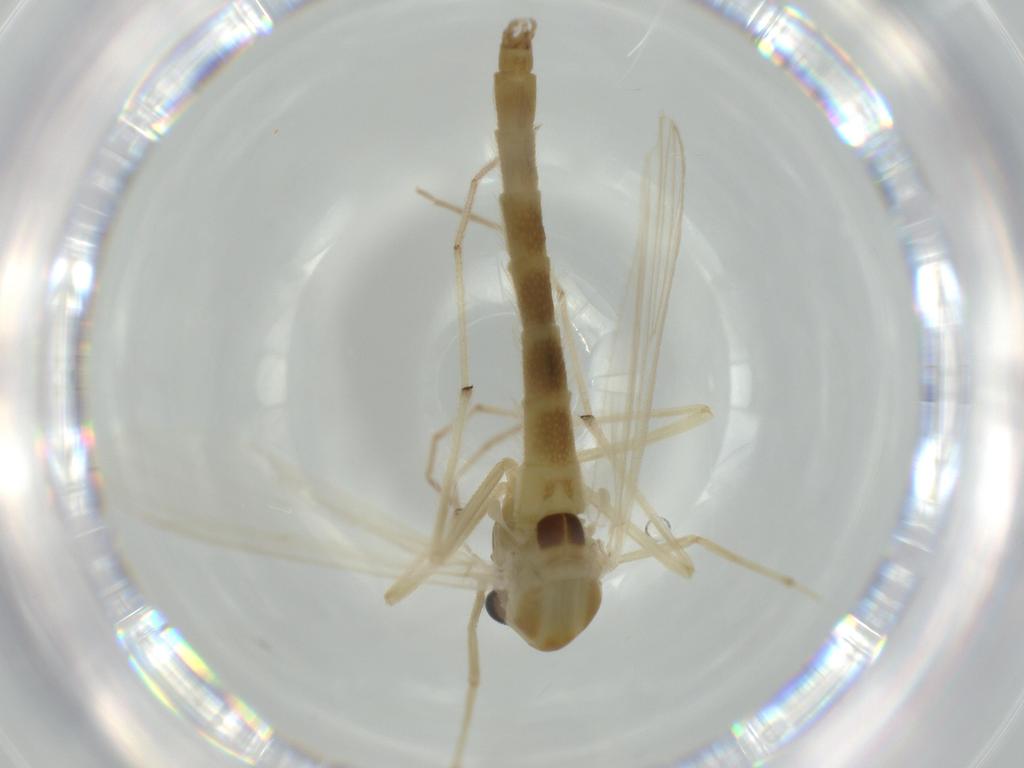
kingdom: Animalia
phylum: Arthropoda
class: Insecta
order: Diptera
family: Chironomidae
